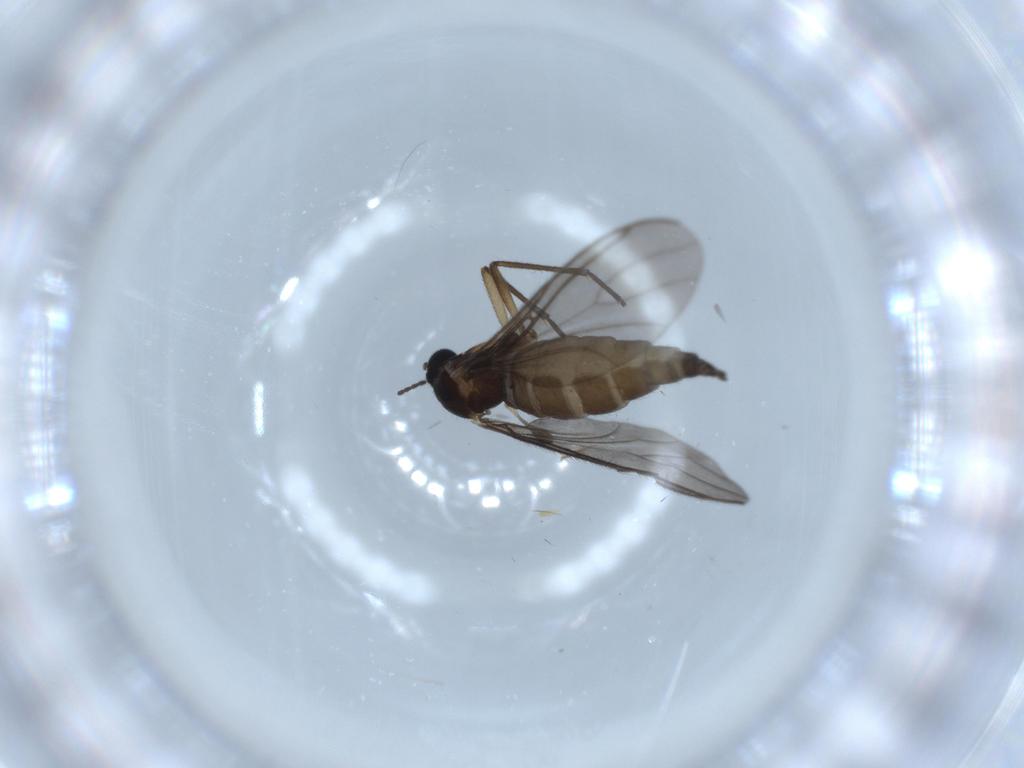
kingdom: Animalia
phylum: Arthropoda
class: Insecta
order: Diptera
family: Sciaridae
